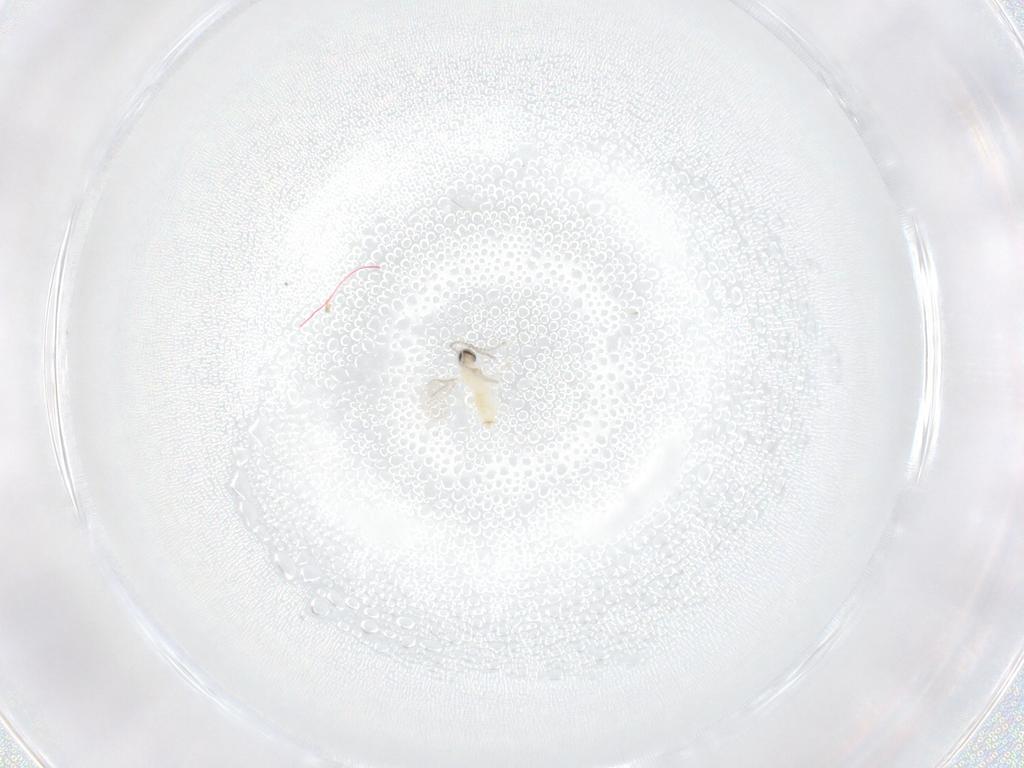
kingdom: Animalia
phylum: Arthropoda
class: Insecta
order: Diptera
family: Cecidomyiidae
